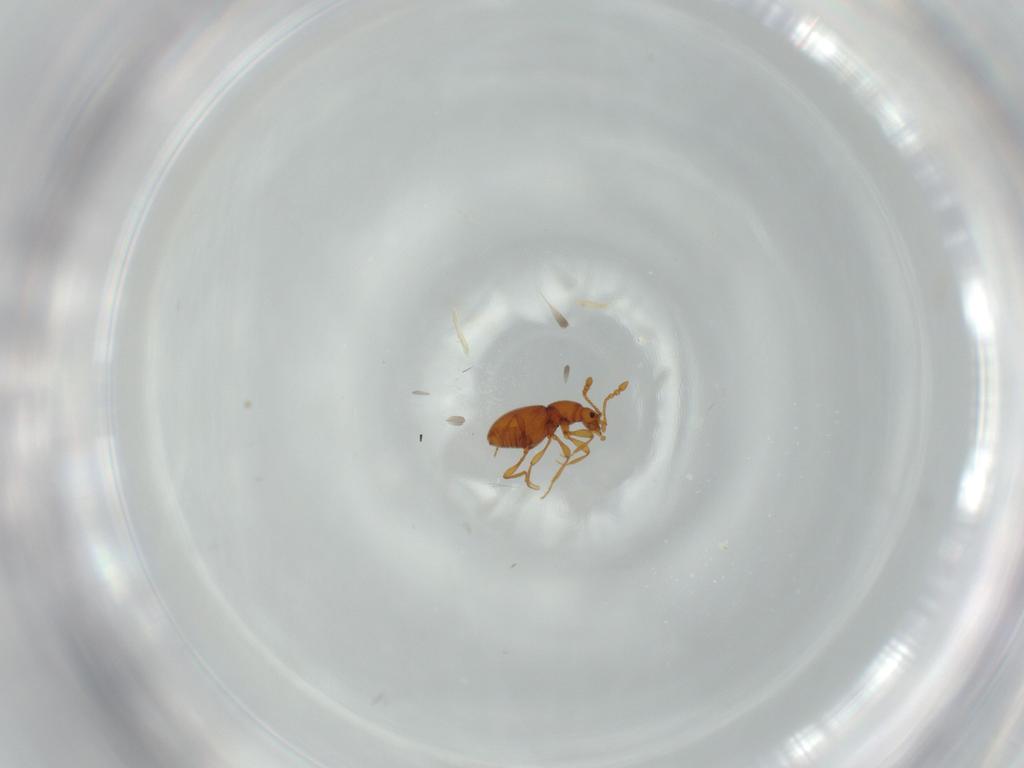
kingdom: Animalia
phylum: Arthropoda
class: Insecta
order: Coleoptera
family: Staphylinidae
